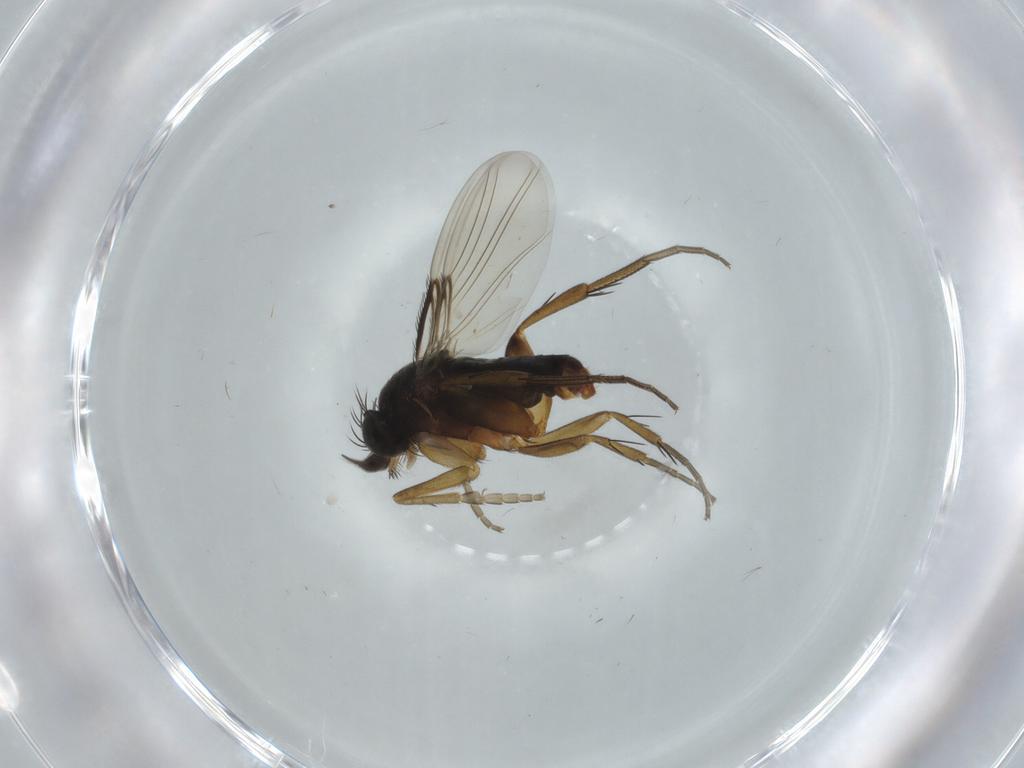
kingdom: Animalia
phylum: Arthropoda
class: Insecta
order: Diptera
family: Phoridae
